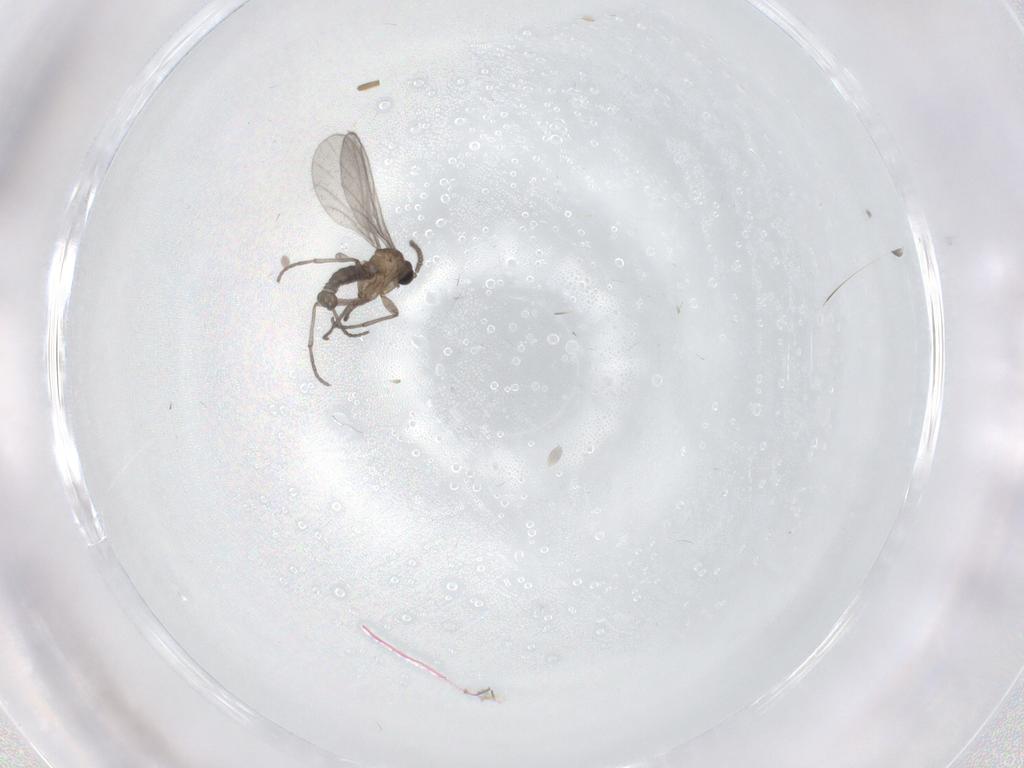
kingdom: Animalia
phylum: Arthropoda
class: Insecta
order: Diptera
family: Sciaridae
